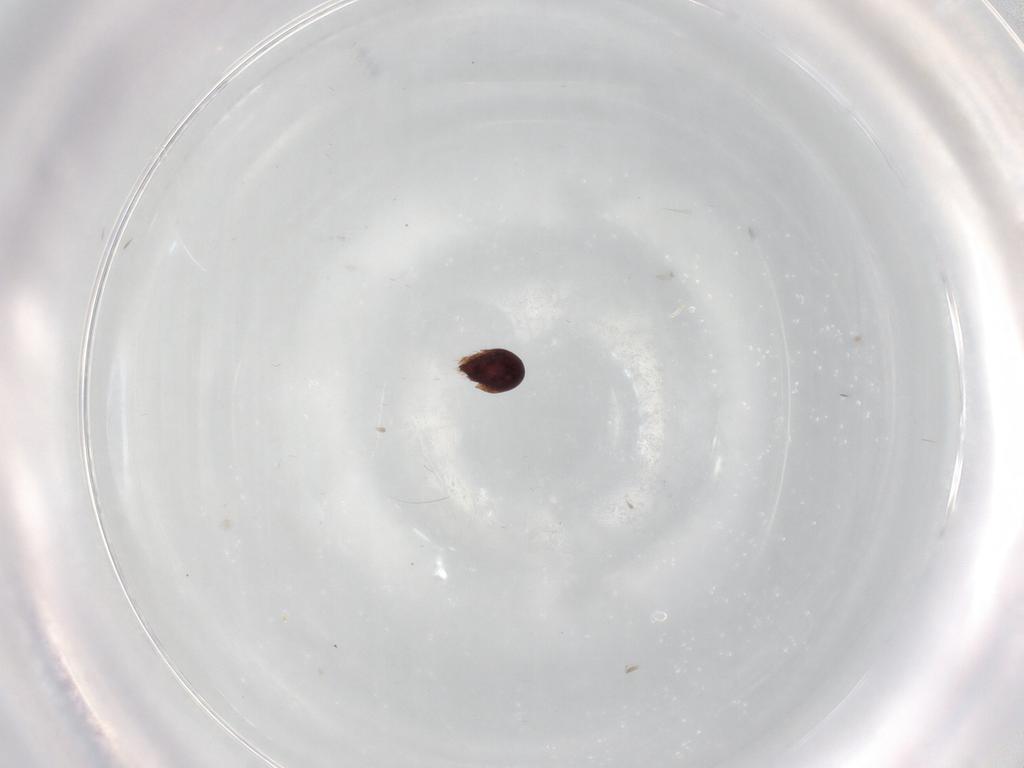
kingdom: Animalia
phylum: Arthropoda
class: Arachnida
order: Sarcoptiformes
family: Oribatellidae
